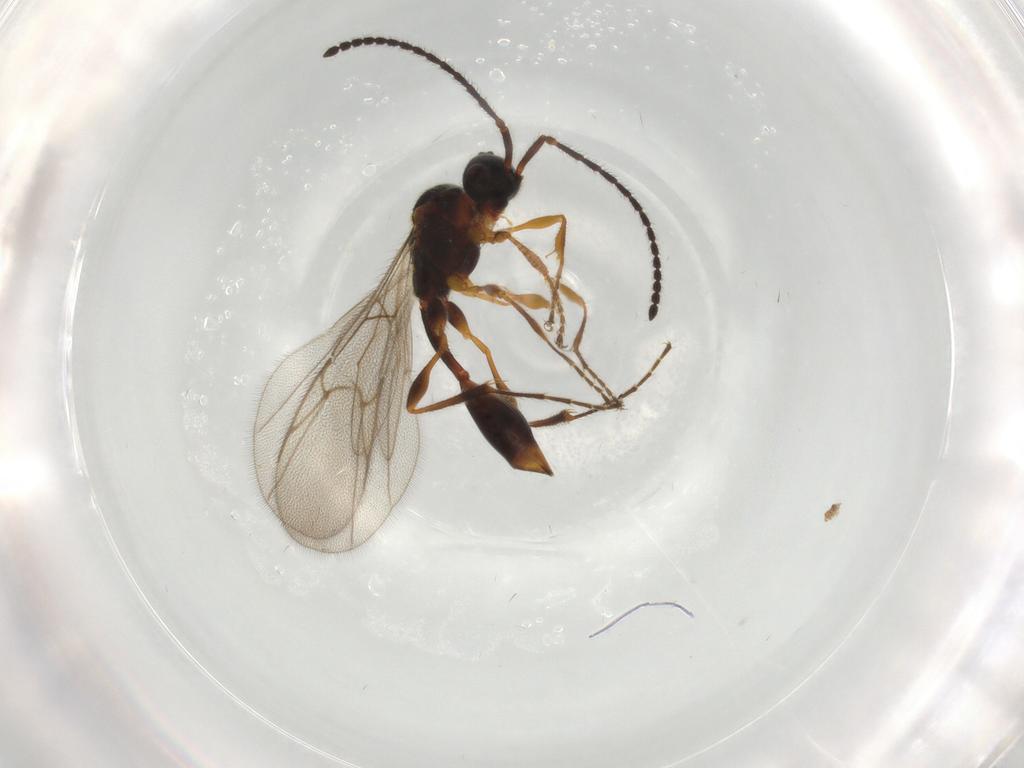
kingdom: Animalia
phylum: Arthropoda
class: Insecta
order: Hymenoptera
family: Diapriidae
